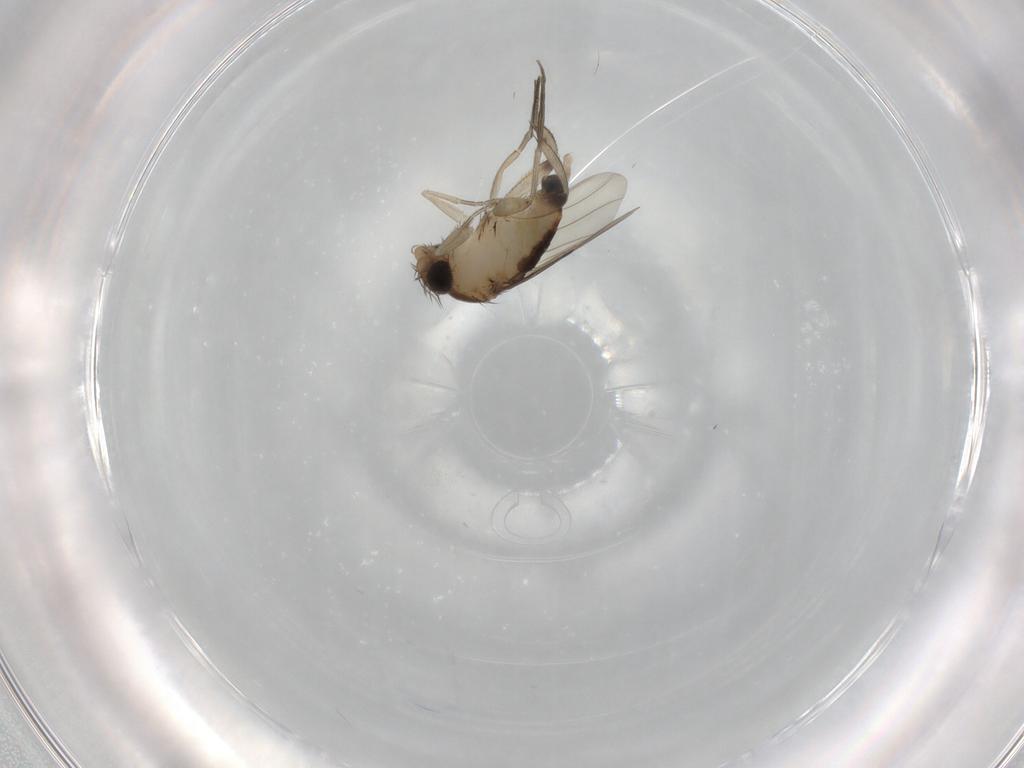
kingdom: Animalia
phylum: Arthropoda
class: Insecta
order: Diptera
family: Phoridae
